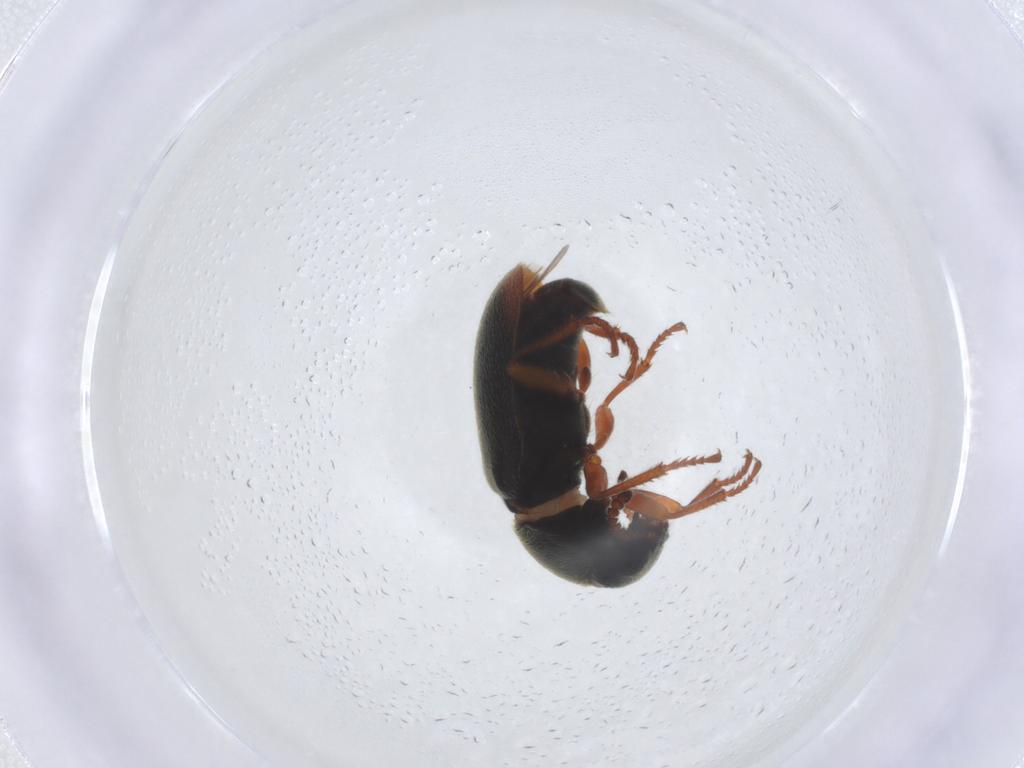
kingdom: Animalia
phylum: Arthropoda
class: Insecta
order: Coleoptera
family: Melyridae
